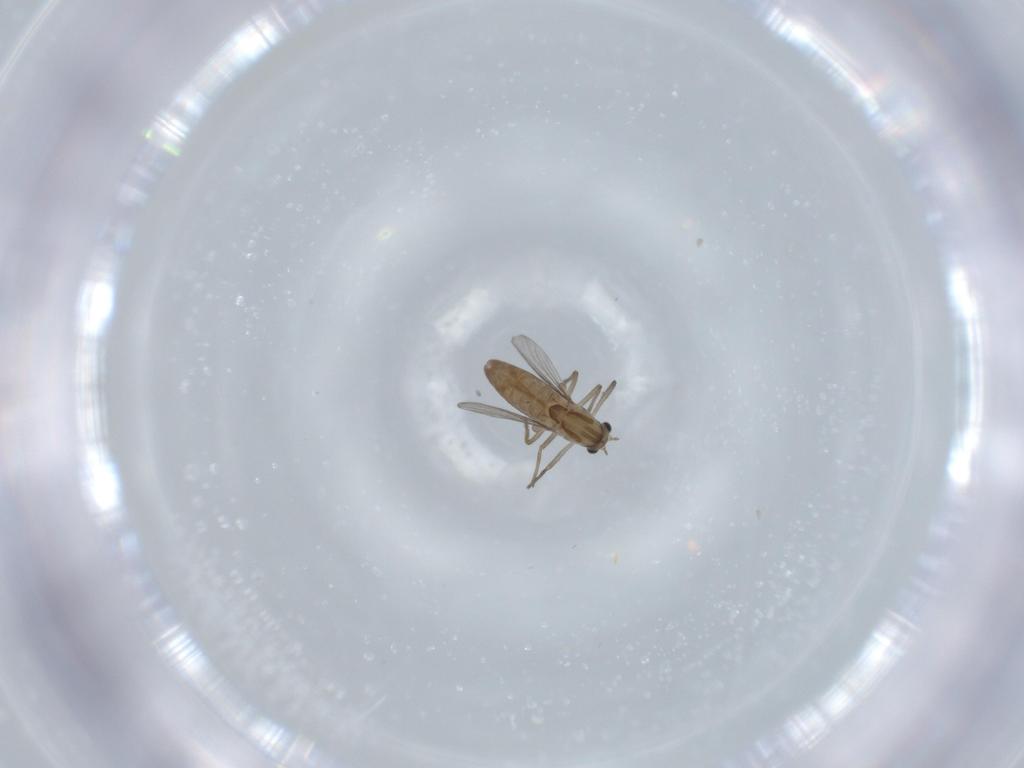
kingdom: Animalia
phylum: Arthropoda
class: Insecta
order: Diptera
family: Chironomidae
